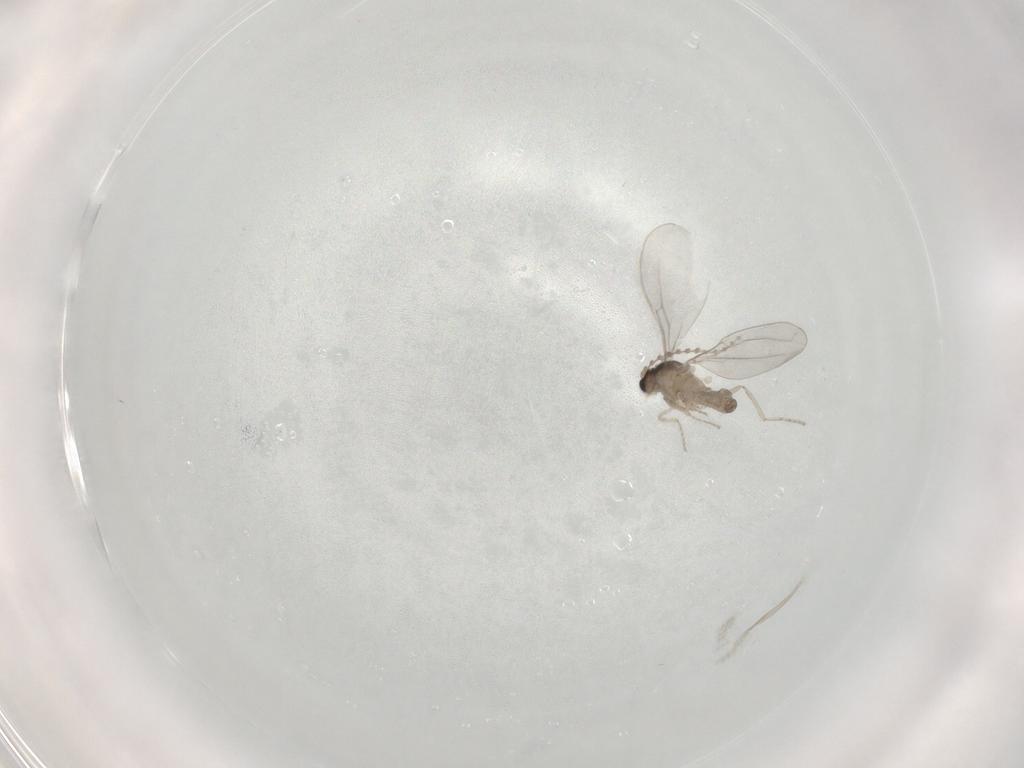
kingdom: Animalia
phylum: Arthropoda
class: Insecta
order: Diptera
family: Cecidomyiidae
